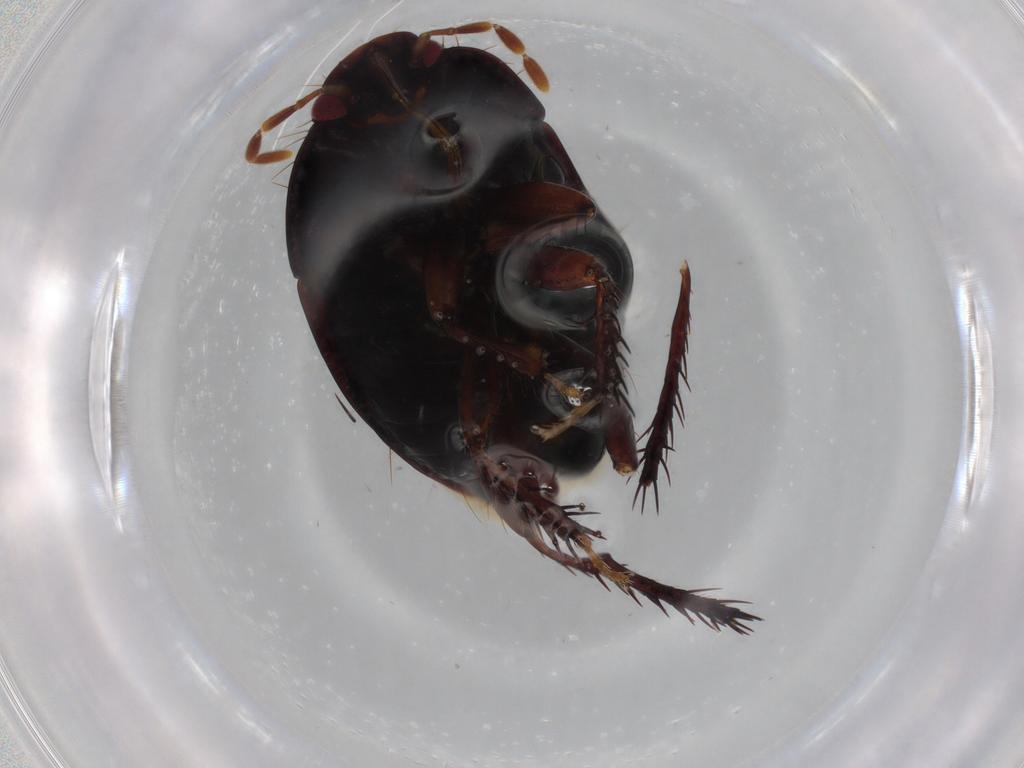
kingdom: Animalia
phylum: Arthropoda
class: Insecta
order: Hemiptera
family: Cydnidae
